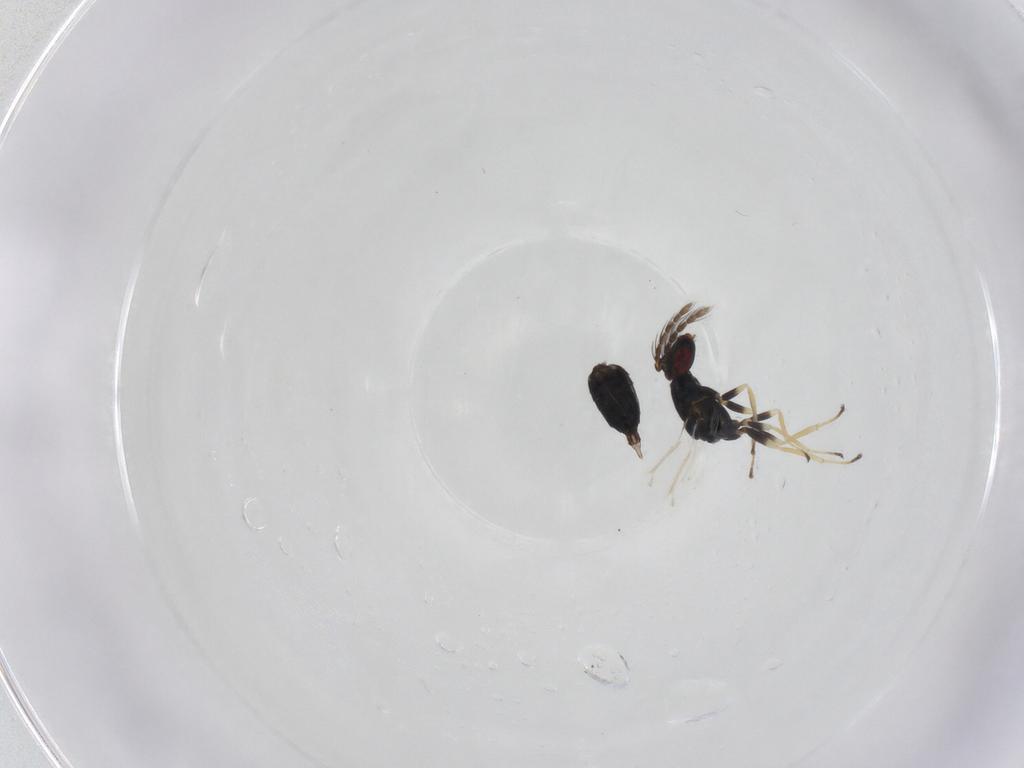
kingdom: Animalia
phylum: Arthropoda
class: Insecta
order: Hymenoptera
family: Eulophidae
